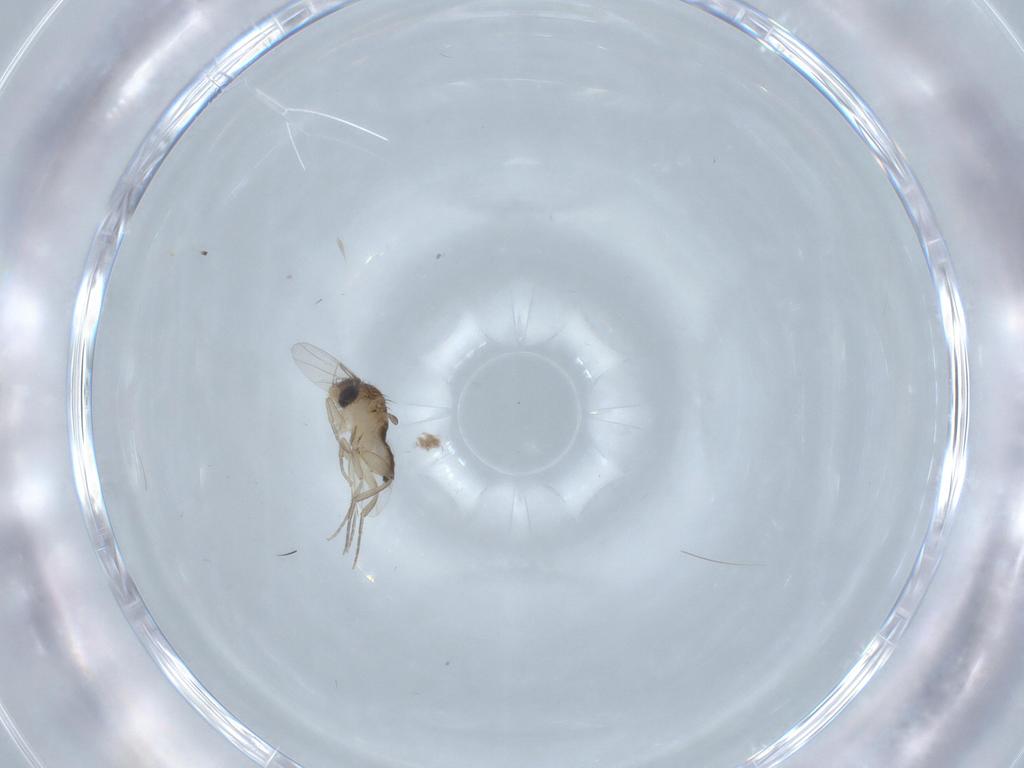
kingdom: Animalia
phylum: Arthropoda
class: Insecta
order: Diptera
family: Phoridae
